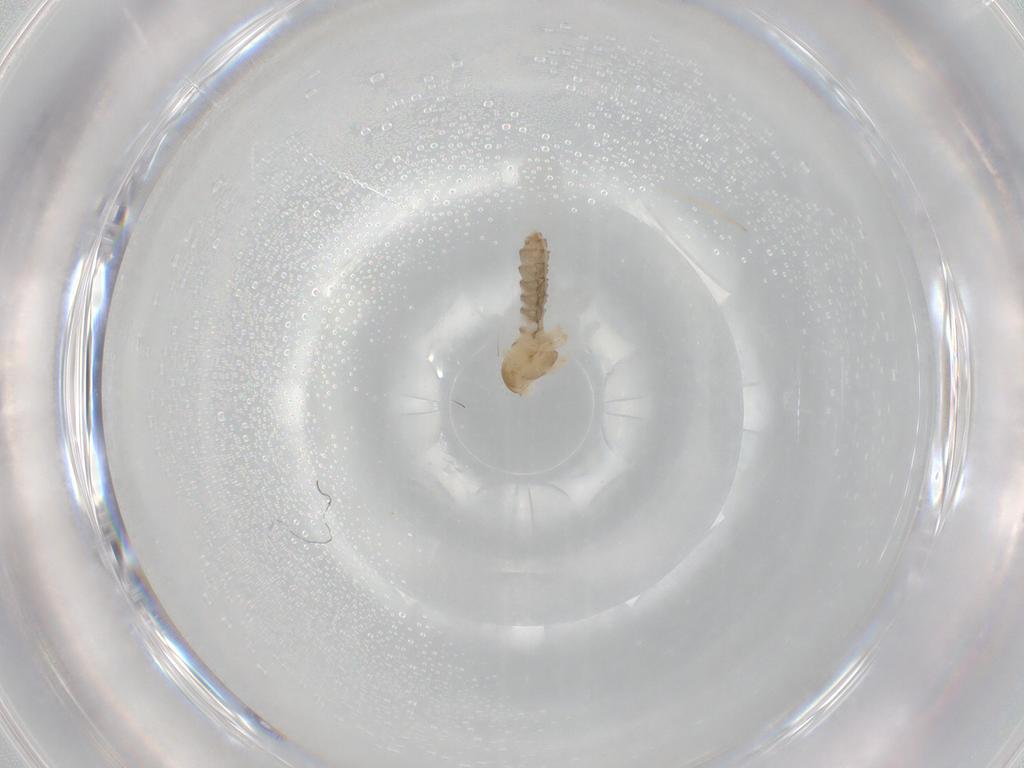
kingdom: Animalia
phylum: Arthropoda
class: Insecta
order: Diptera
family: Cecidomyiidae
